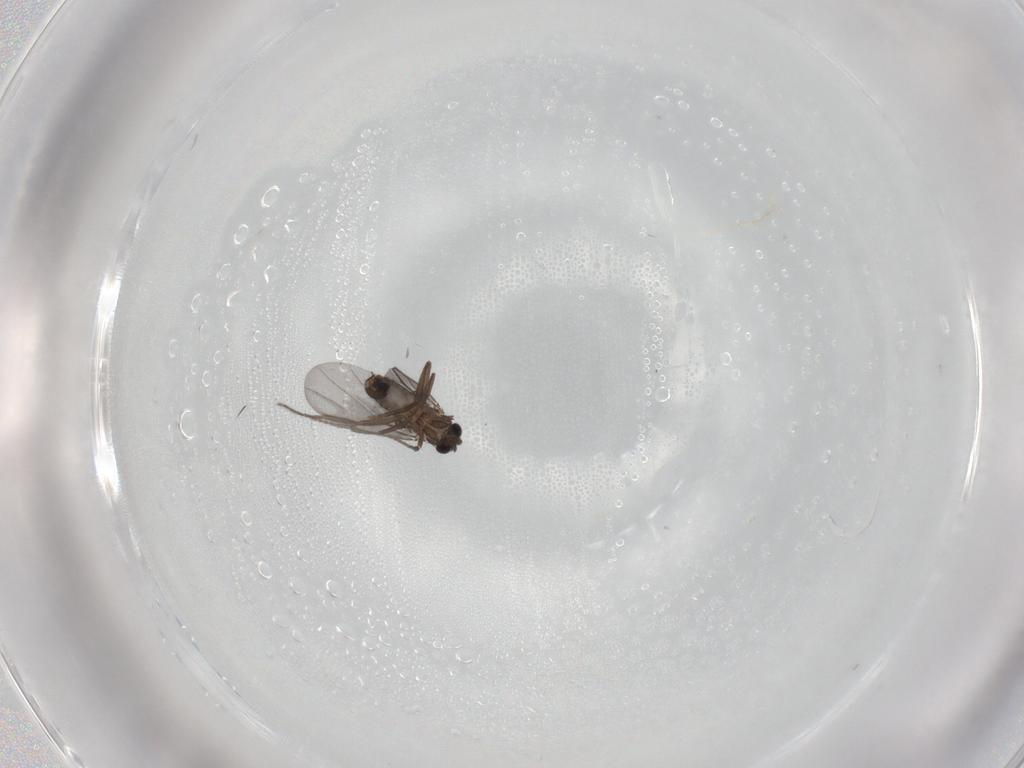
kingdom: Animalia
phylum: Arthropoda
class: Insecta
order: Diptera
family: Phoridae
